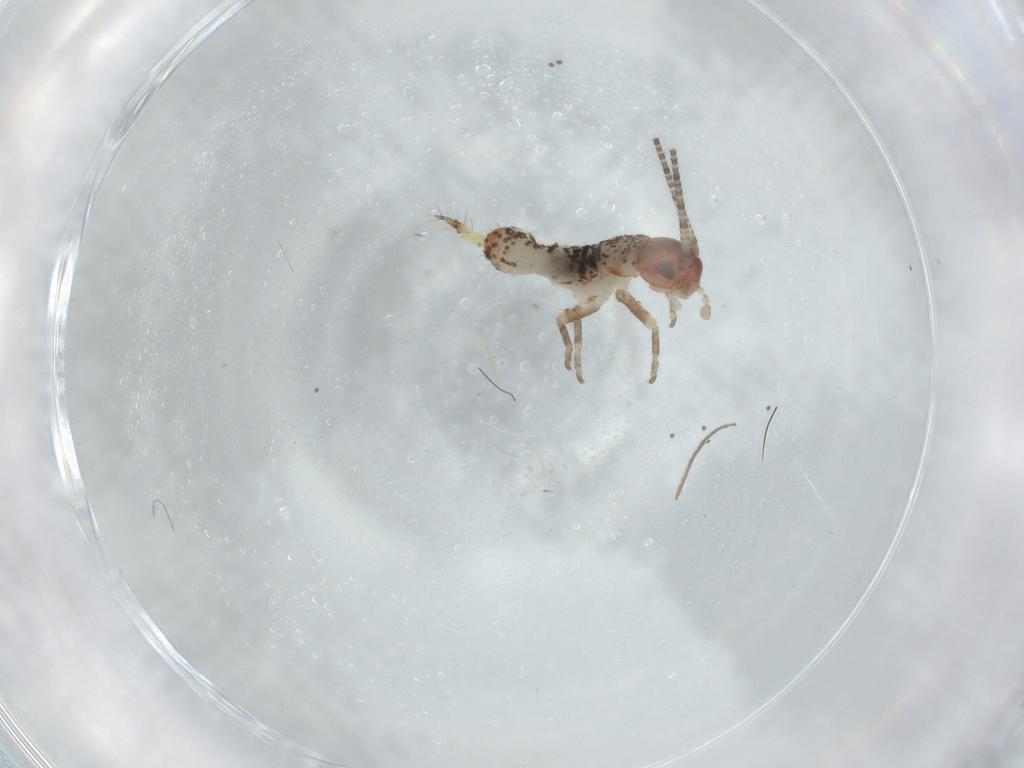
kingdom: Animalia
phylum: Arthropoda
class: Insecta
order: Orthoptera
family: Mogoplistidae
